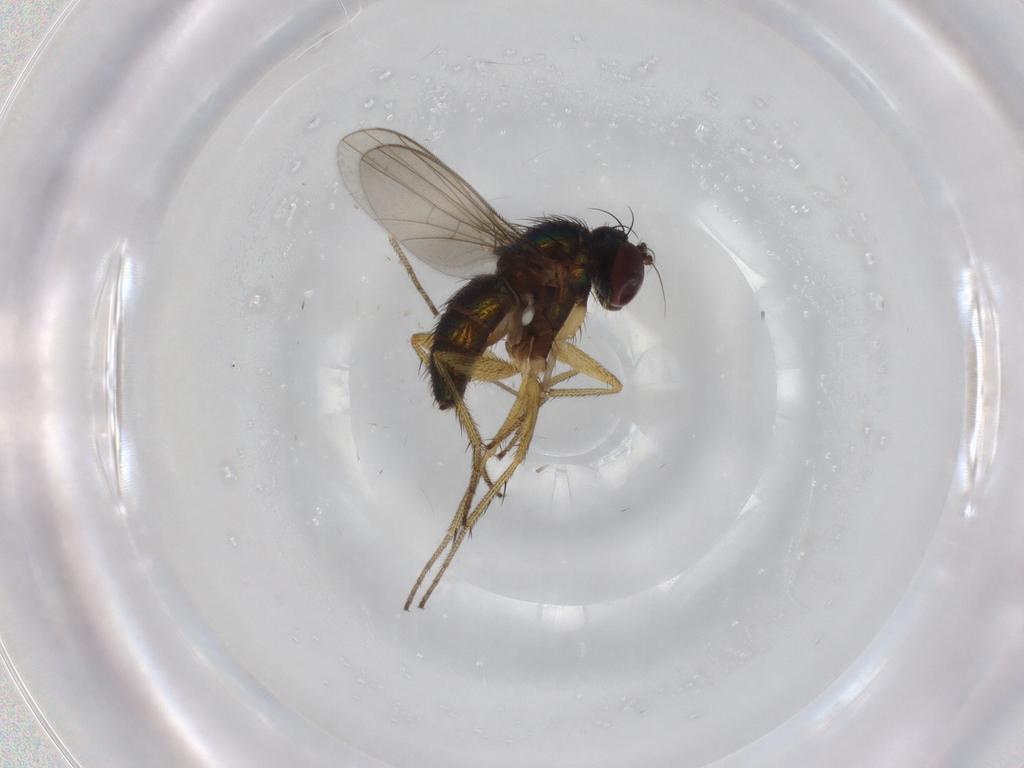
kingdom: Animalia
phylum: Arthropoda
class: Insecta
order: Diptera
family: Dolichopodidae
